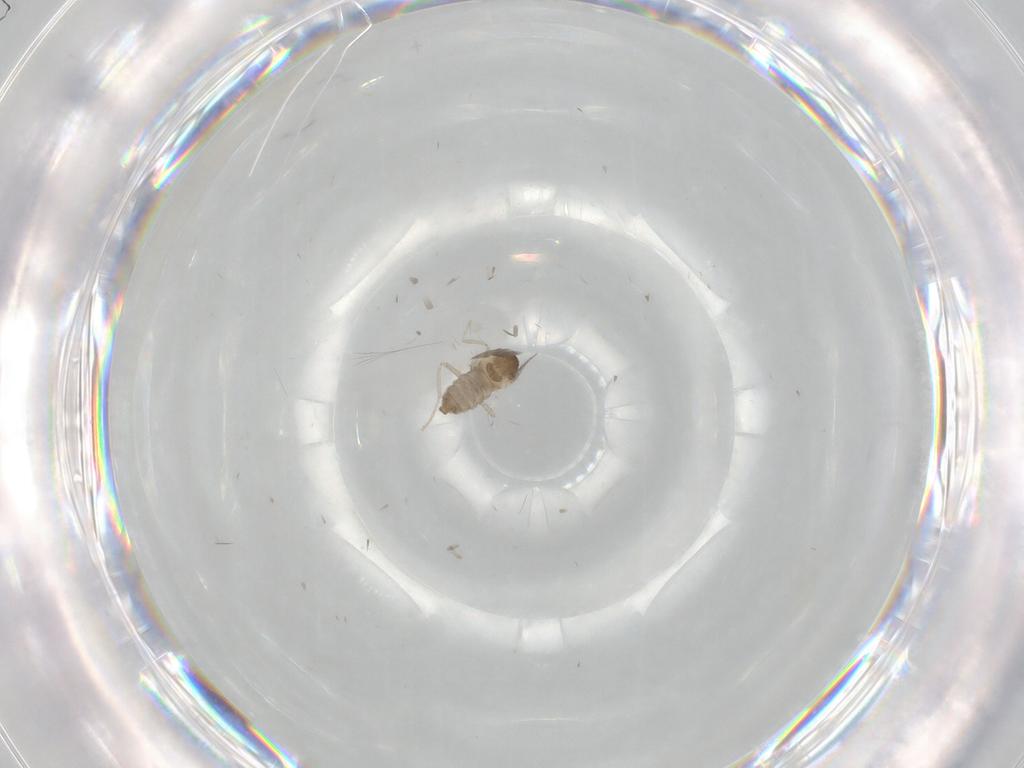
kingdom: Animalia
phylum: Arthropoda
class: Insecta
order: Diptera
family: Cecidomyiidae
